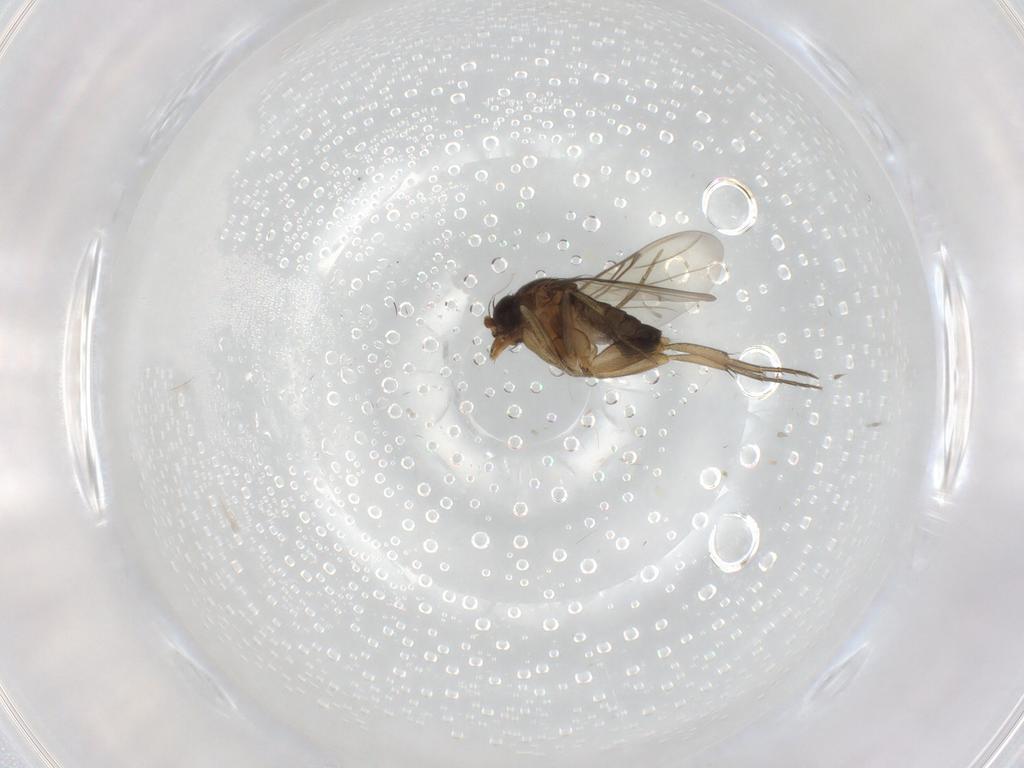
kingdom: Animalia
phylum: Arthropoda
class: Insecta
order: Diptera
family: Phoridae
